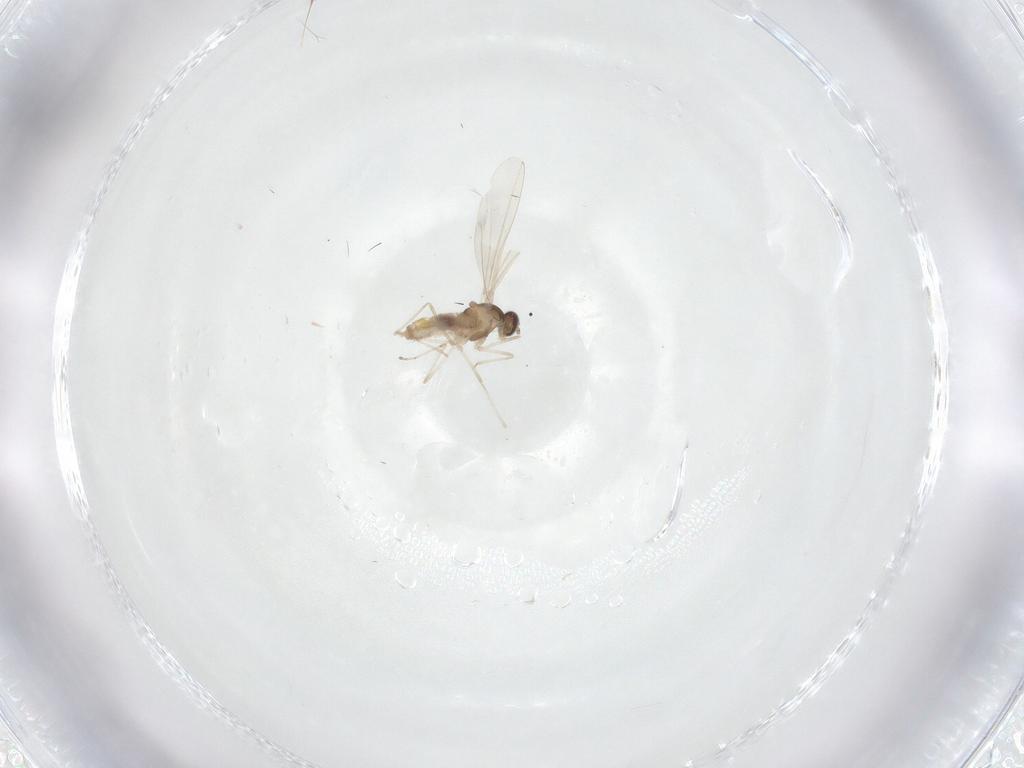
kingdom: Animalia
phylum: Arthropoda
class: Insecta
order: Diptera
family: Cecidomyiidae
